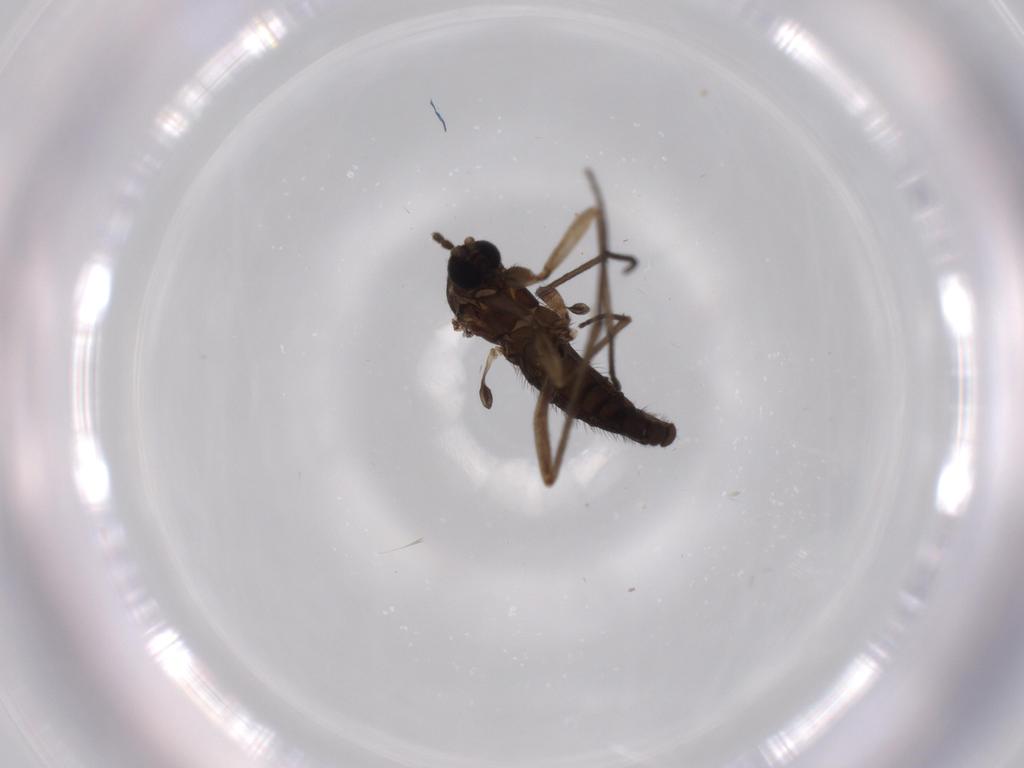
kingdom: Animalia
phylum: Arthropoda
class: Insecta
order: Diptera
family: Sciaridae
